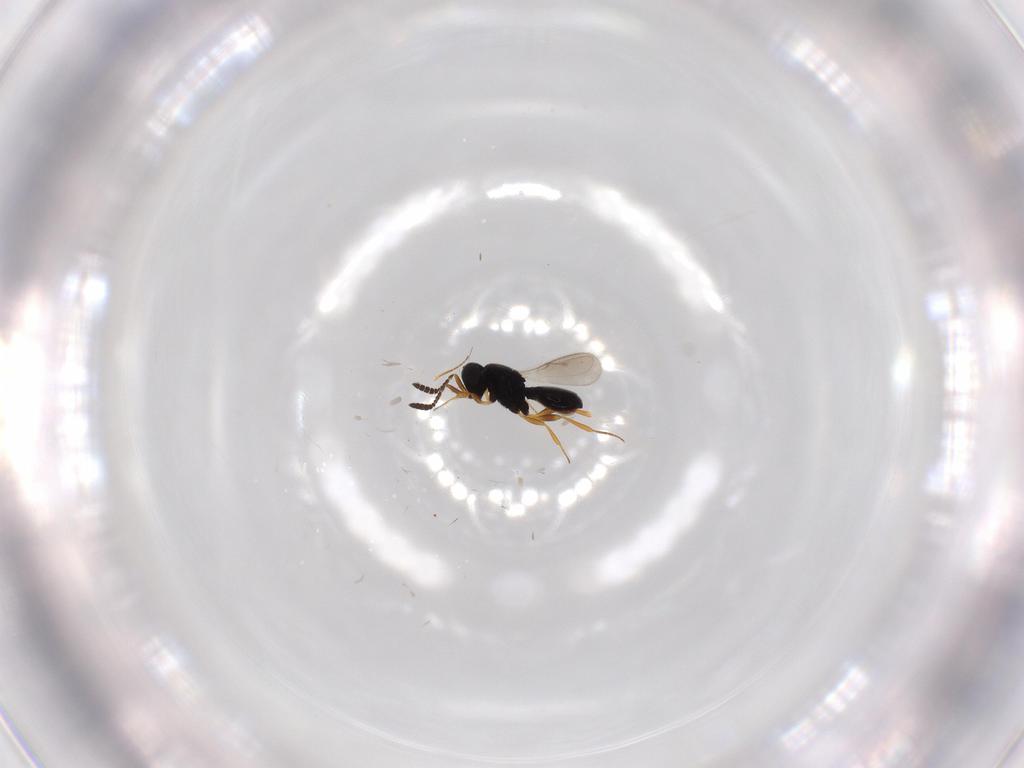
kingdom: Animalia
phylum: Arthropoda
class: Insecta
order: Hymenoptera
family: Scelionidae
